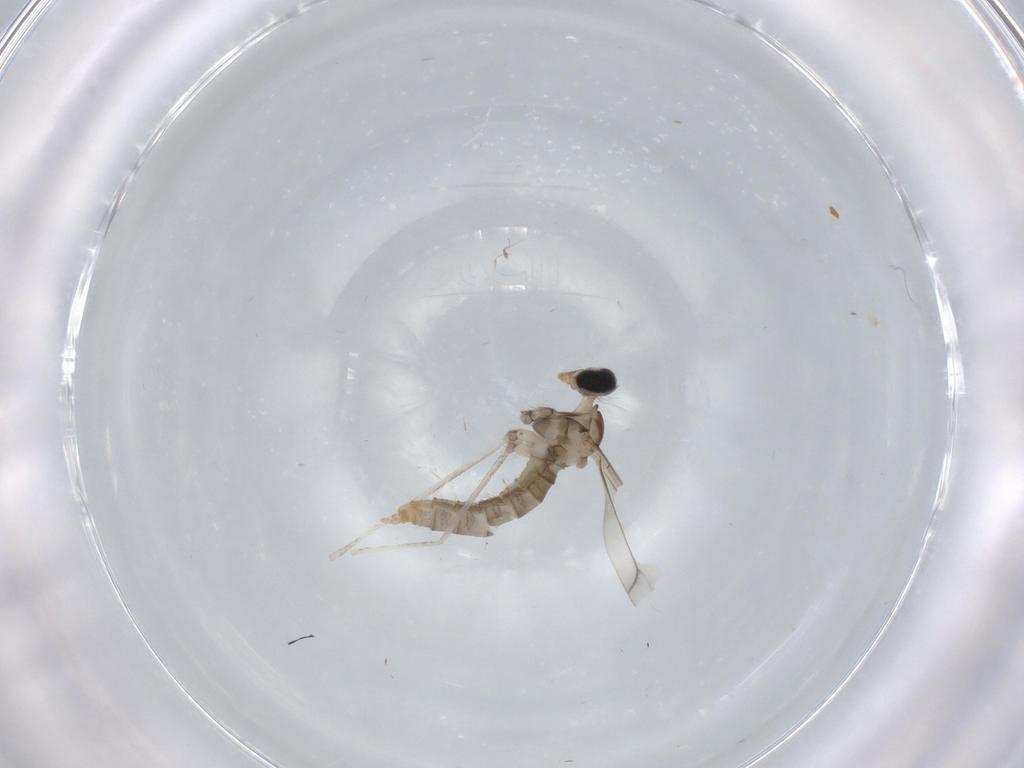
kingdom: Animalia
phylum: Arthropoda
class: Insecta
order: Diptera
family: Cecidomyiidae
